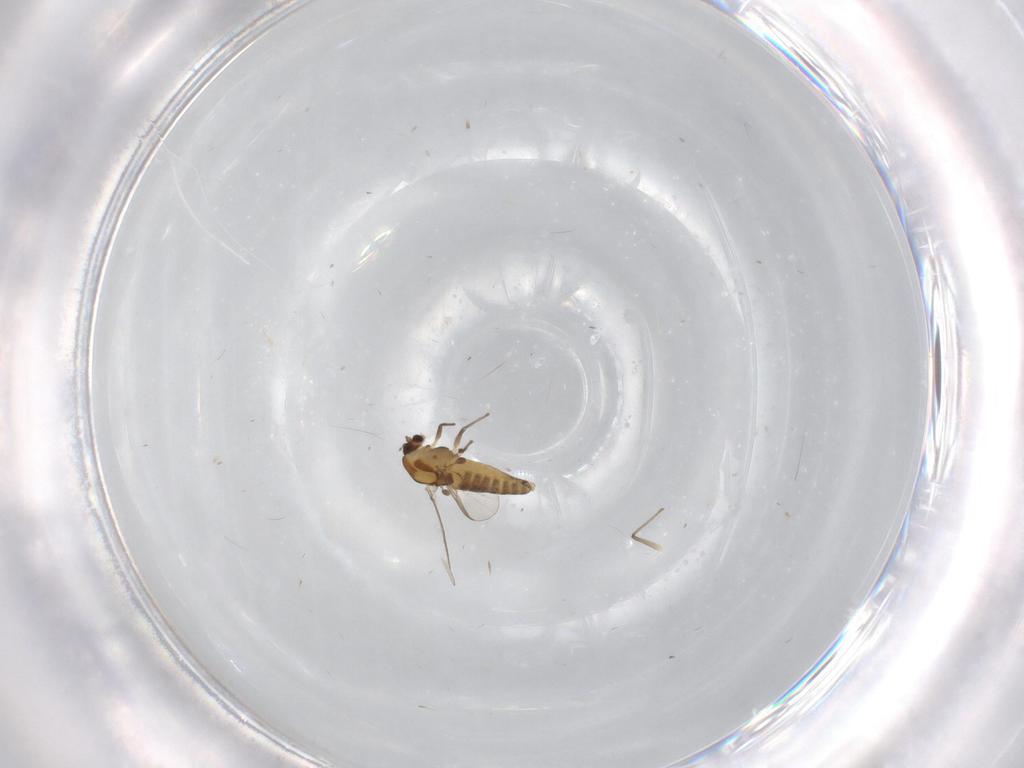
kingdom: Animalia
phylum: Arthropoda
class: Insecta
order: Diptera
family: Chironomidae
